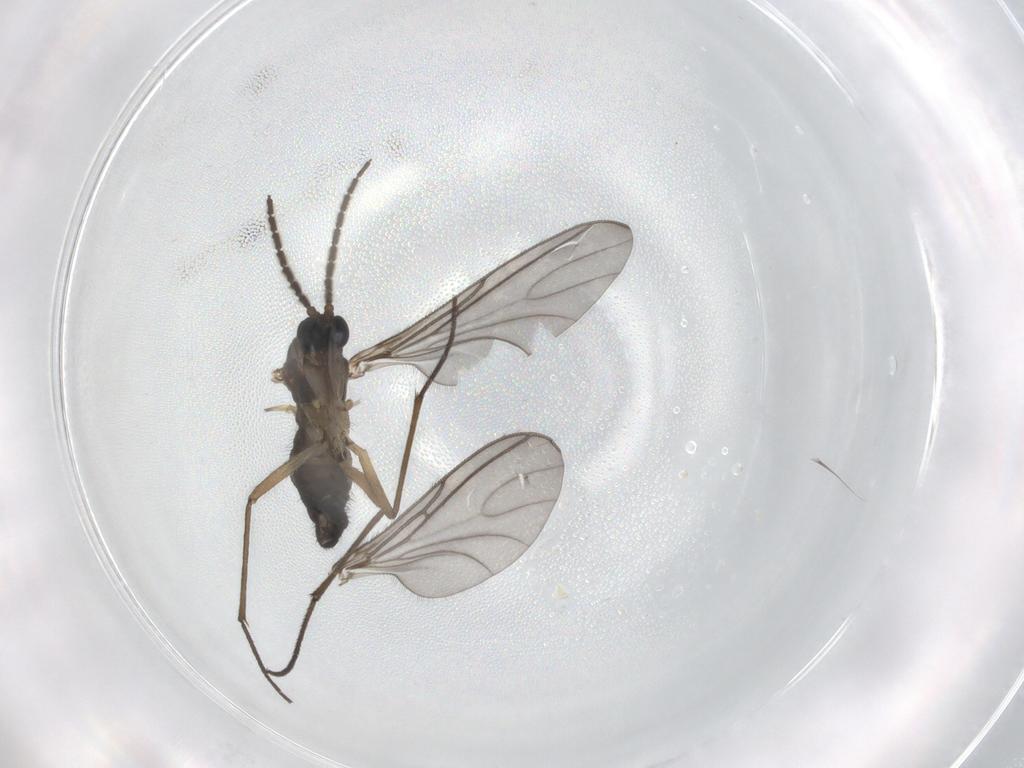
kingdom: Animalia
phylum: Arthropoda
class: Insecta
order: Diptera
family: Sciaridae
